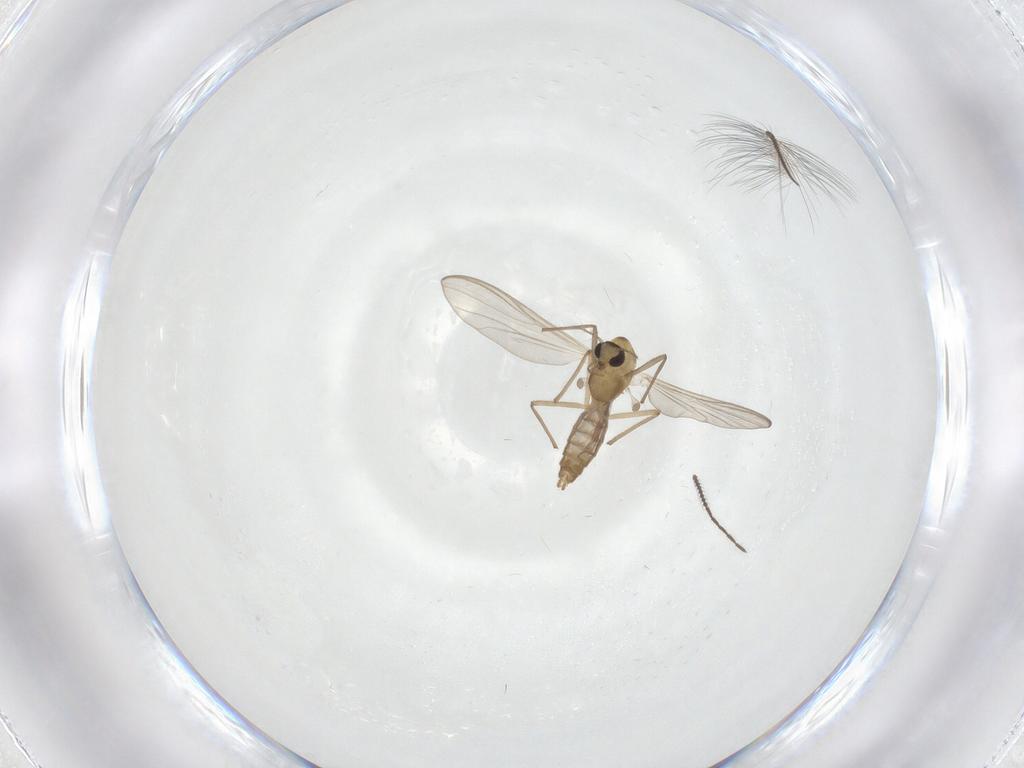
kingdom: Animalia
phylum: Arthropoda
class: Insecta
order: Diptera
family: Chironomidae
